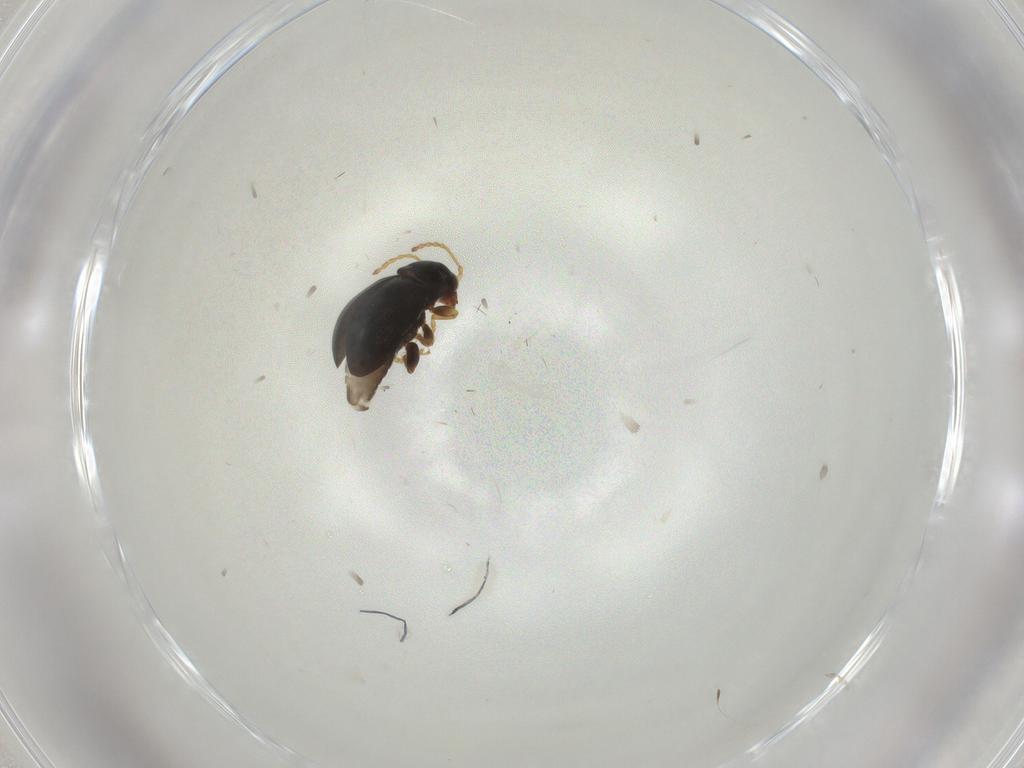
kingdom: Animalia
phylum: Arthropoda
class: Insecta
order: Coleoptera
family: Chrysomelidae
